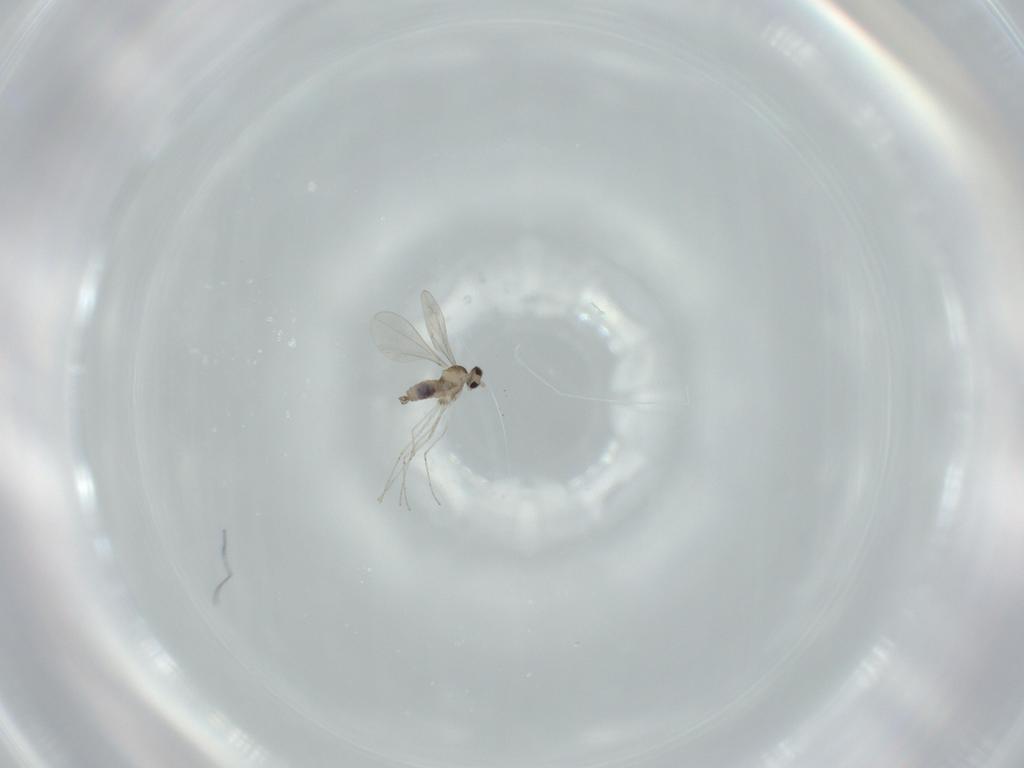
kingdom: Animalia
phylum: Arthropoda
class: Insecta
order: Diptera
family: Cecidomyiidae
